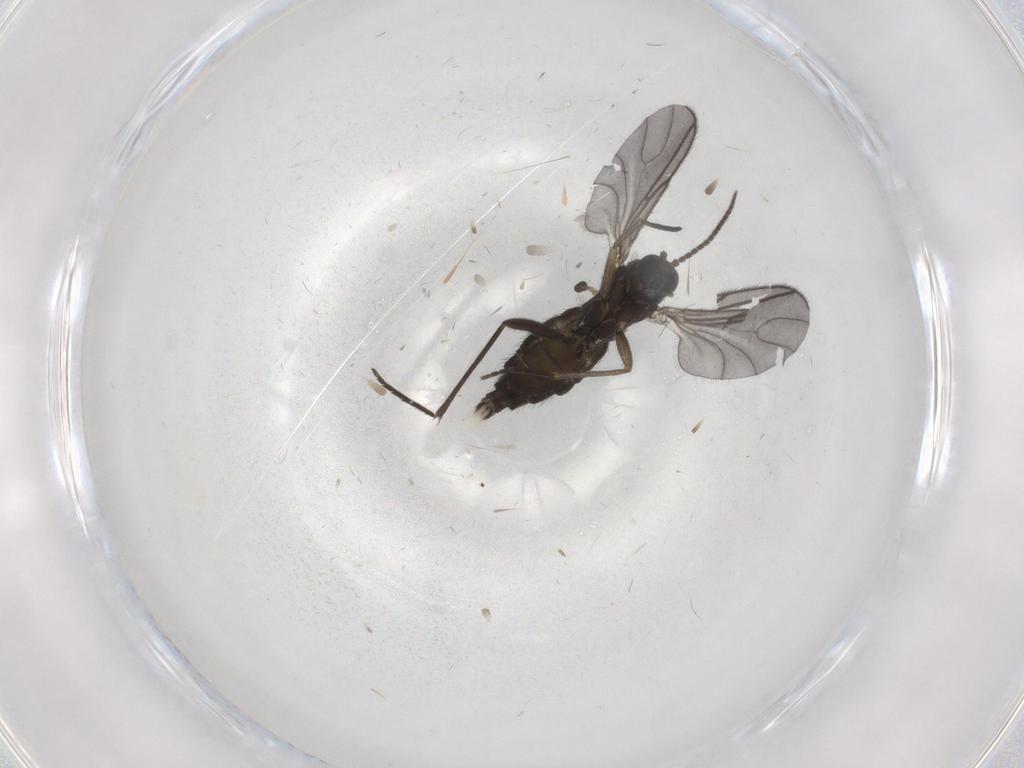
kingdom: Animalia
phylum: Arthropoda
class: Insecta
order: Diptera
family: Sciaridae
